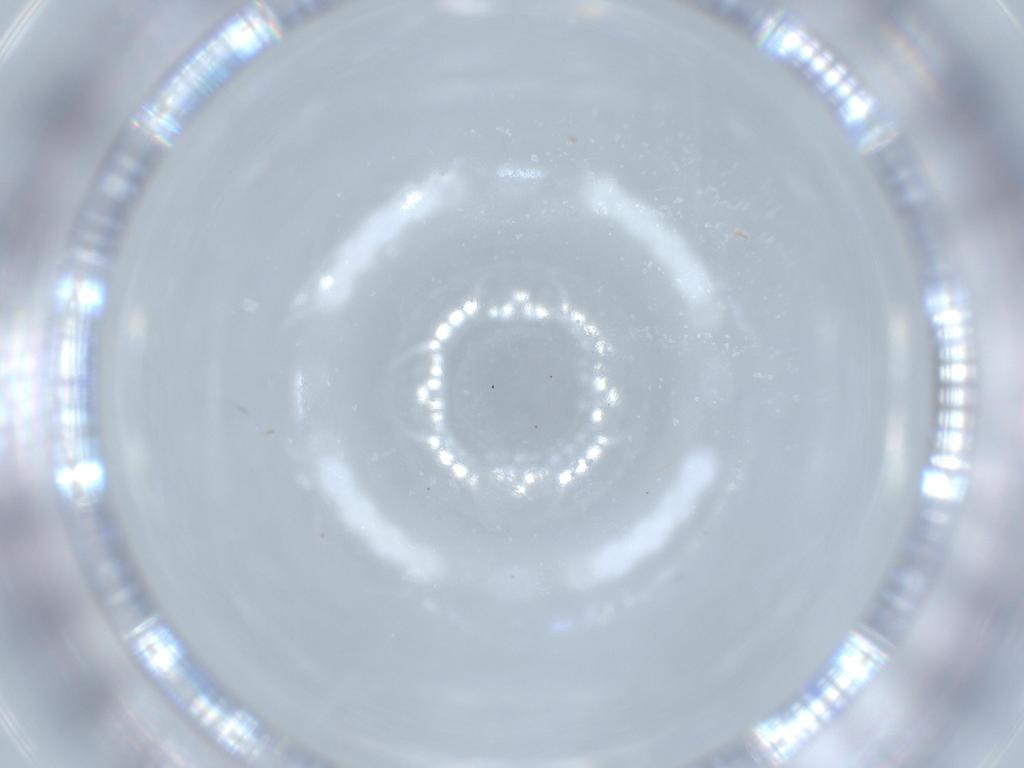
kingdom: Animalia
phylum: Arthropoda
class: Insecta
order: Diptera
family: Sciaridae
